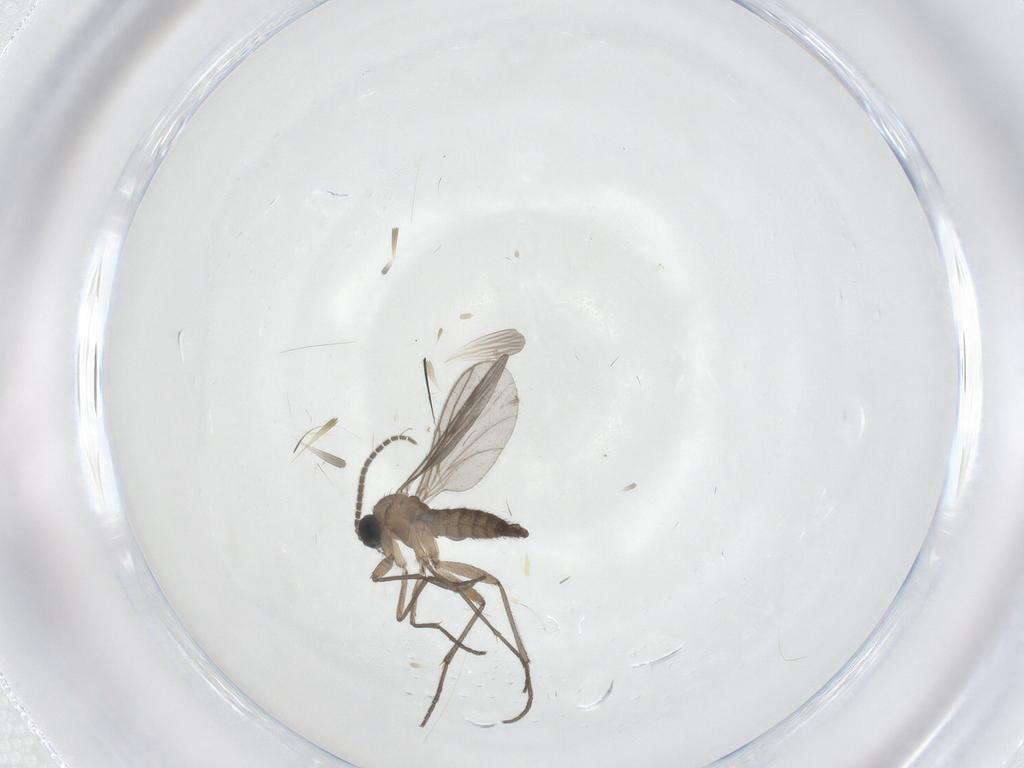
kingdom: Animalia
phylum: Arthropoda
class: Insecta
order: Diptera
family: Sciaridae
